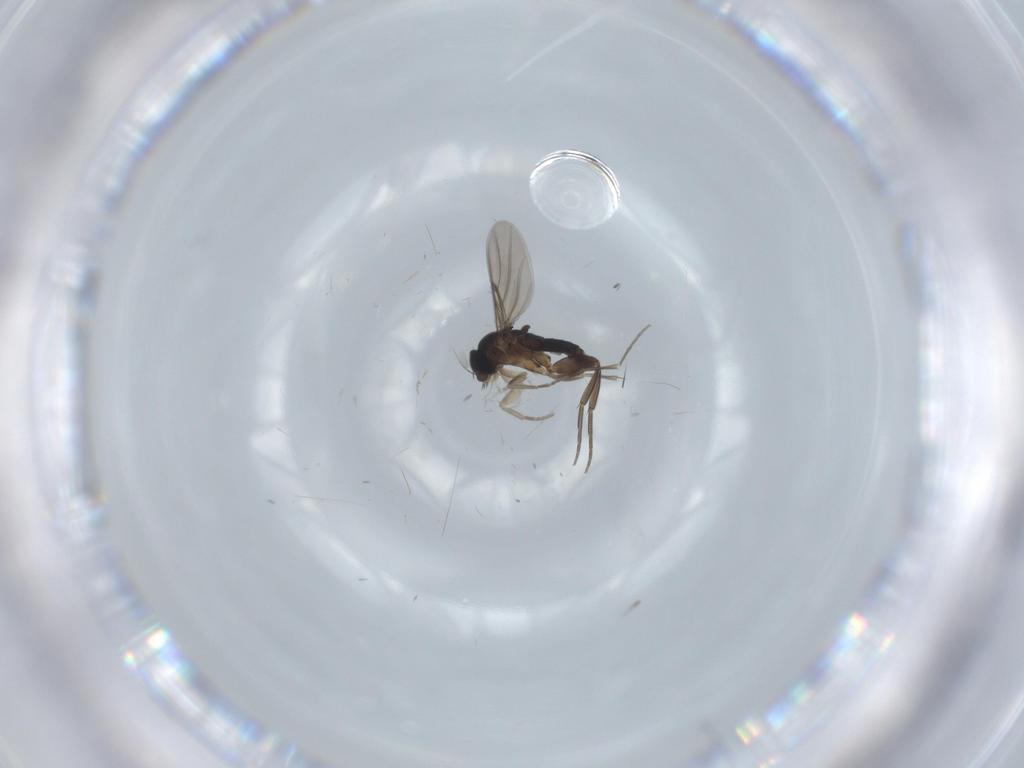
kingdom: Animalia
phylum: Arthropoda
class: Insecta
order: Diptera
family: Phoridae
